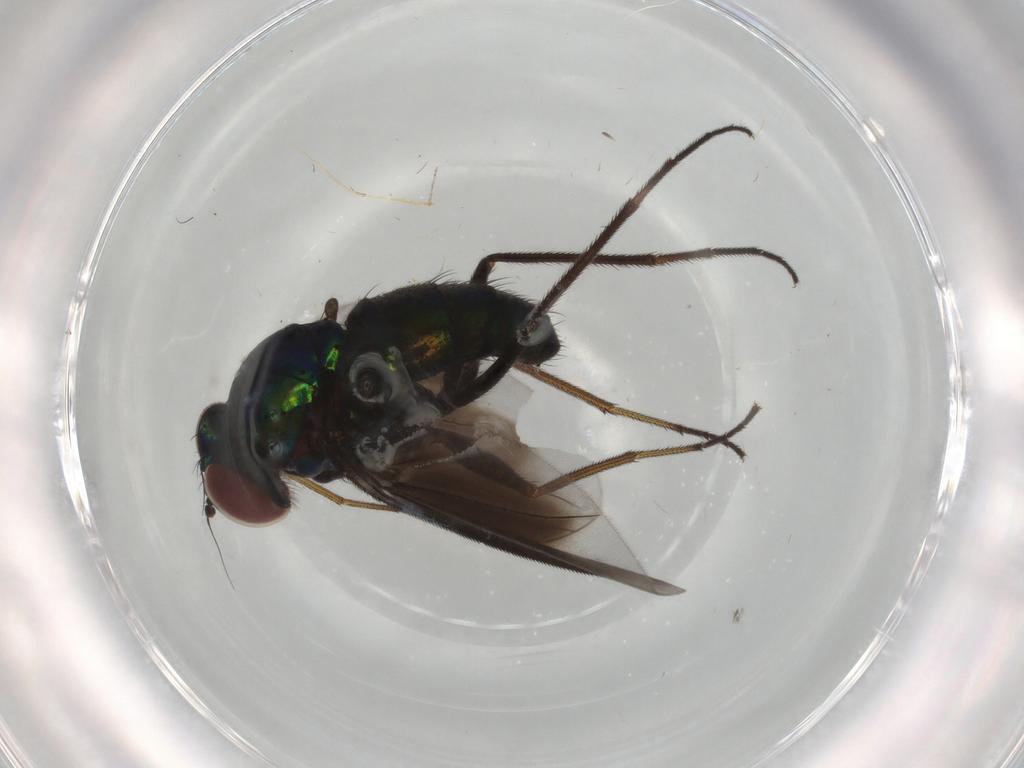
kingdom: Animalia
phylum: Arthropoda
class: Insecta
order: Diptera
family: Dolichopodidae
